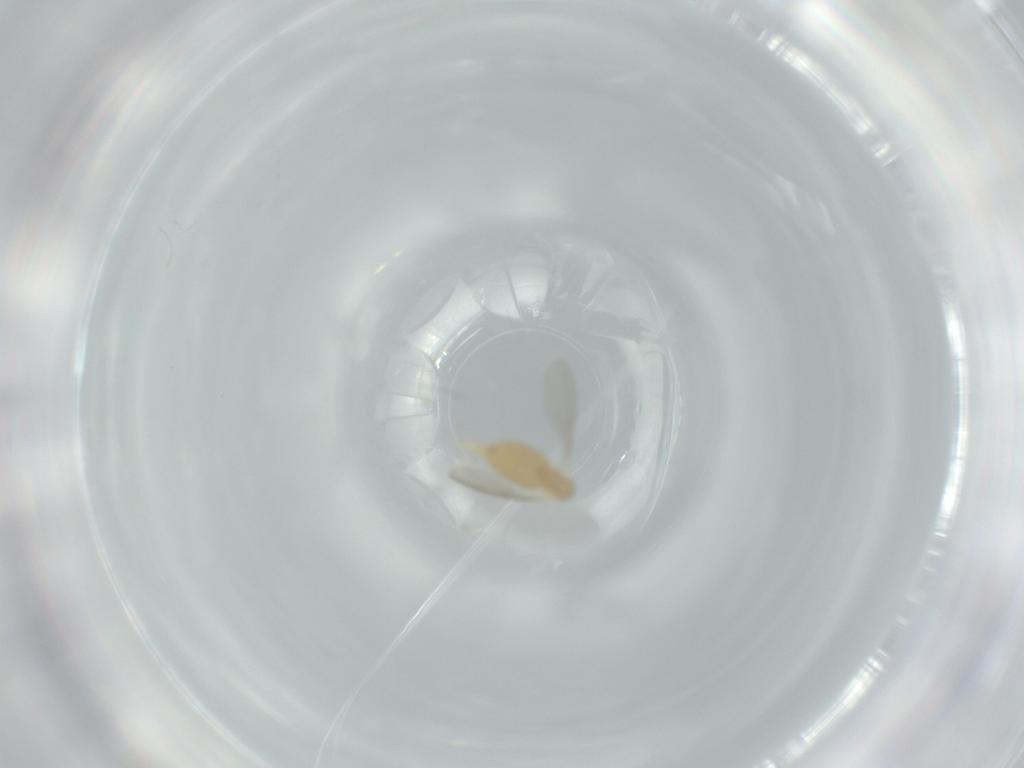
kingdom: Animalia
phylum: Arthropoda
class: Insecta
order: Diptera
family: Cecidomyiidae
